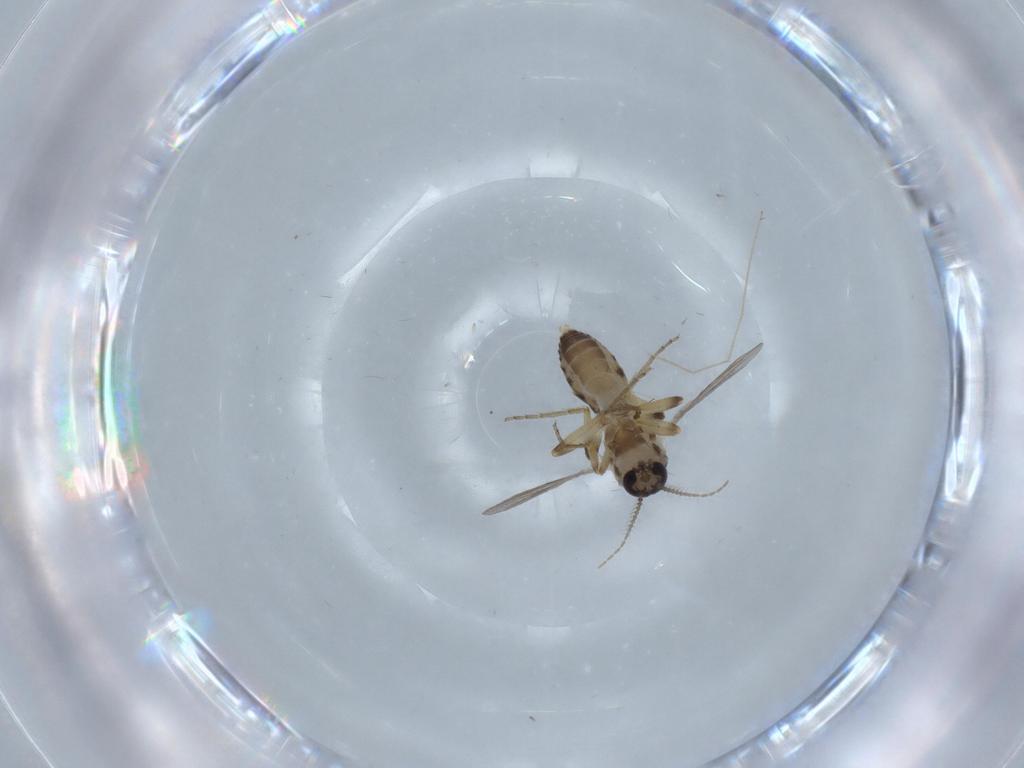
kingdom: Animalia
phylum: Arthropoda
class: Insecta
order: Diptera
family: Ceratopogonidae
